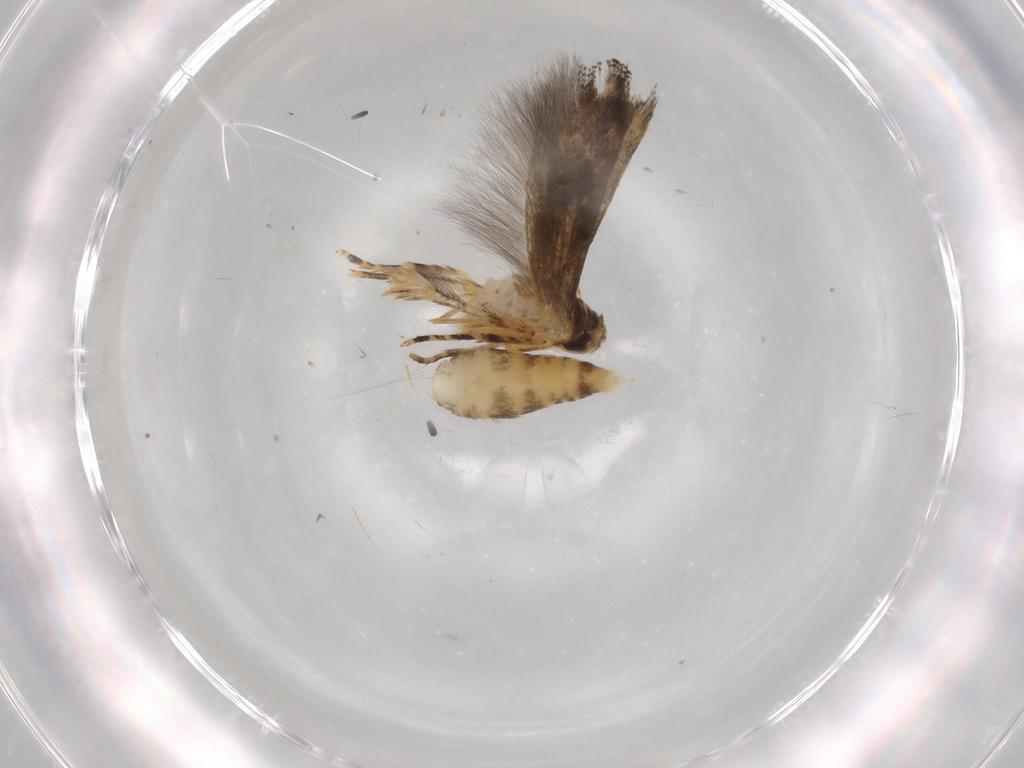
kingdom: Animalia
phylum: Arthropoda
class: Insecta
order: Lepidoptera
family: Momphidae
